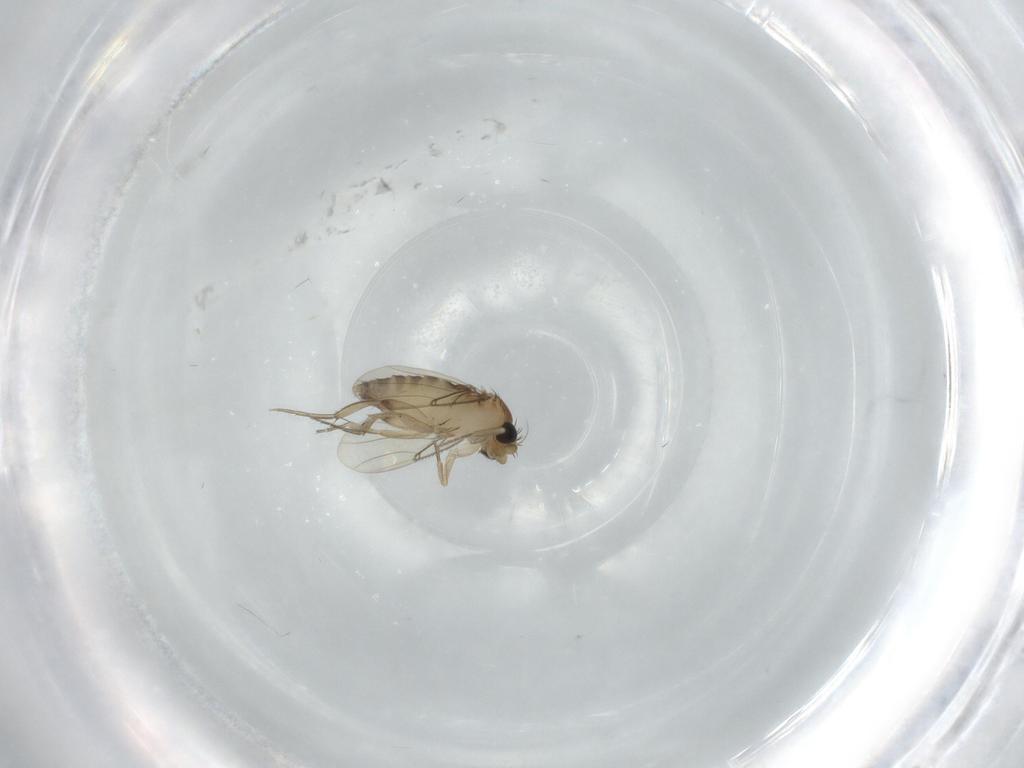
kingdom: Animalia
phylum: Arthropoda
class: Insecta
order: Diptera
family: Phoridae
